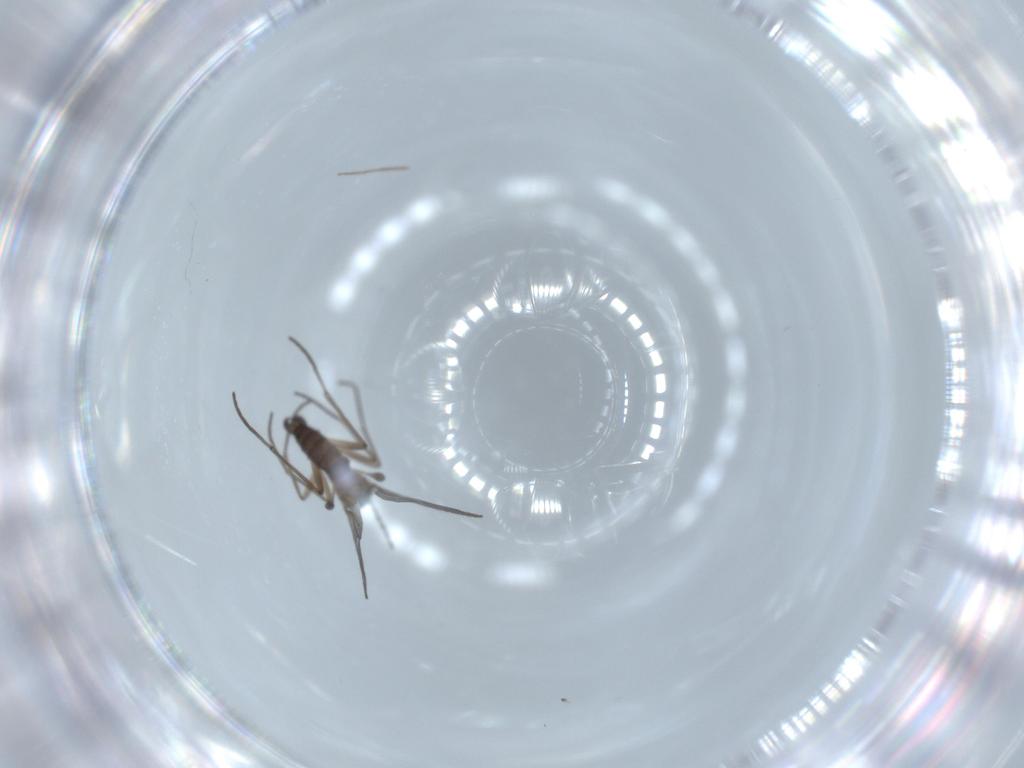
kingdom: Animalia
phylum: Arthropoda
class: Insecta
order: Diptera
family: Sciaridae
